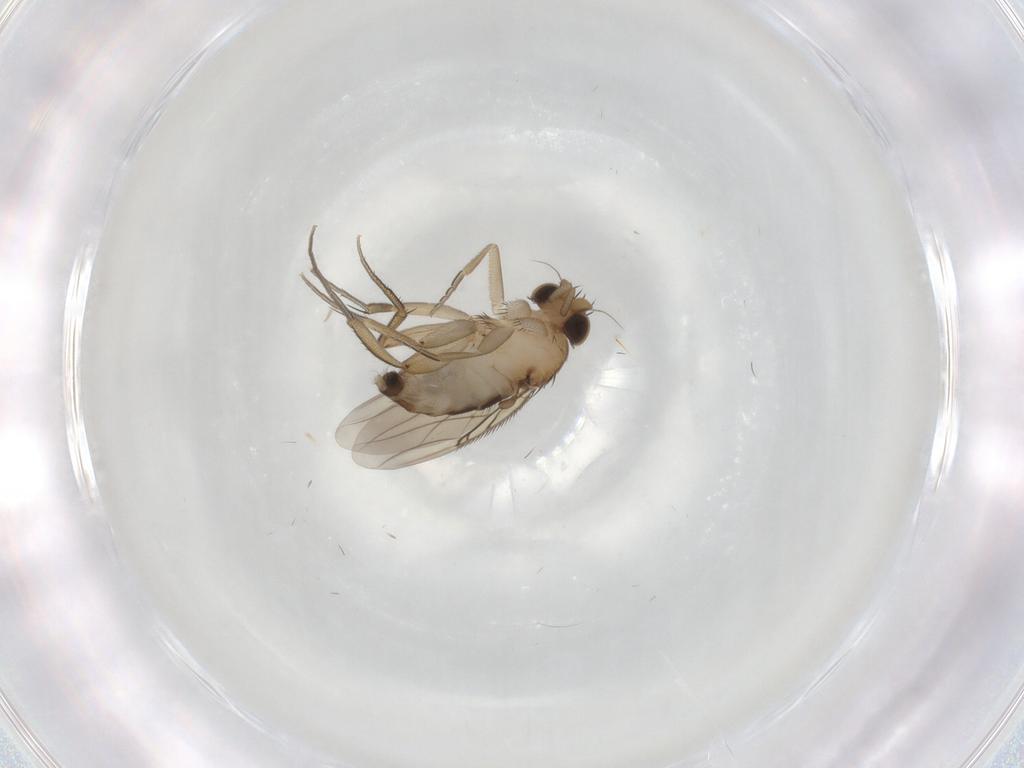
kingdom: Animalia
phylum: Arthropoda
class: Insecta
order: Diptera
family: Phoridae
